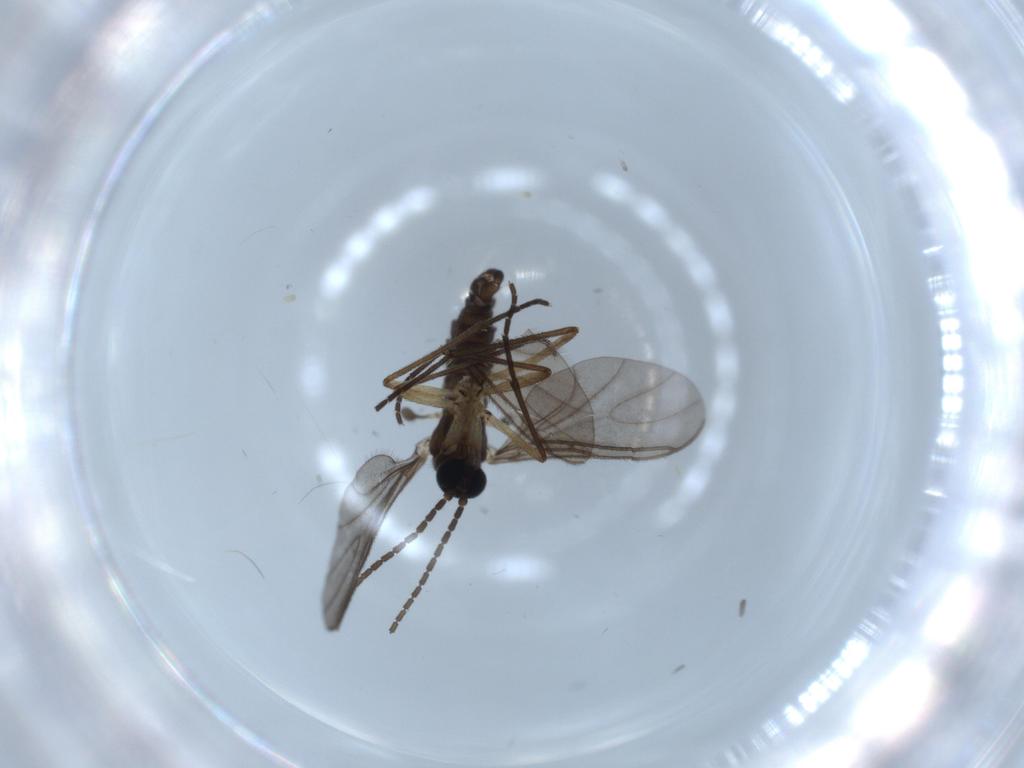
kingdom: Animalia
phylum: Arthropoda
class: Insecta
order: Diptera
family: Sciaridae
